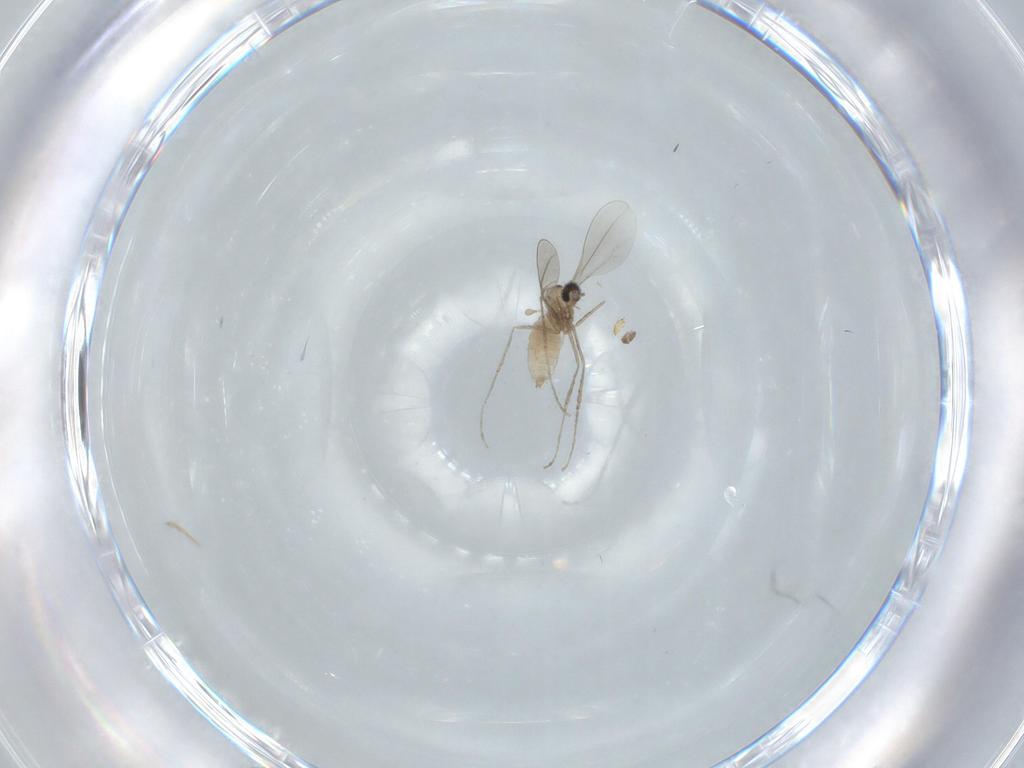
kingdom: Animalia
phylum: Arthropoda
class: Insecta
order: Diptera
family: Cecidomyiidae
